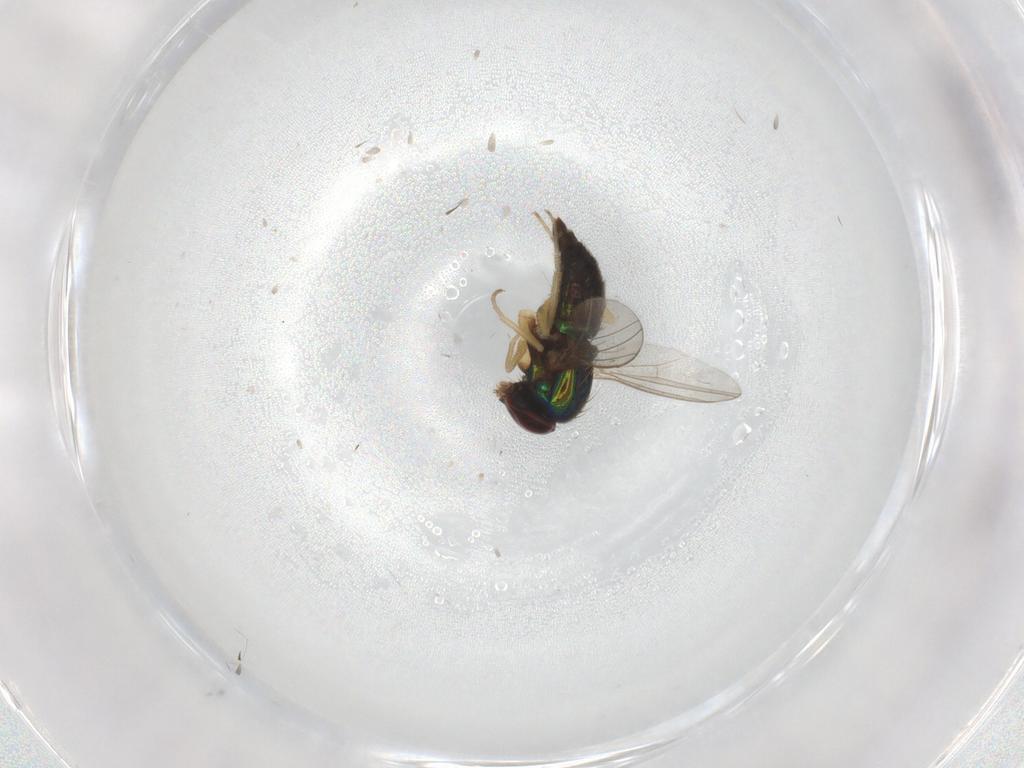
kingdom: Animalia
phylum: Arthropoda
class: Insecta
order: Diptera
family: Dolichopodidae
